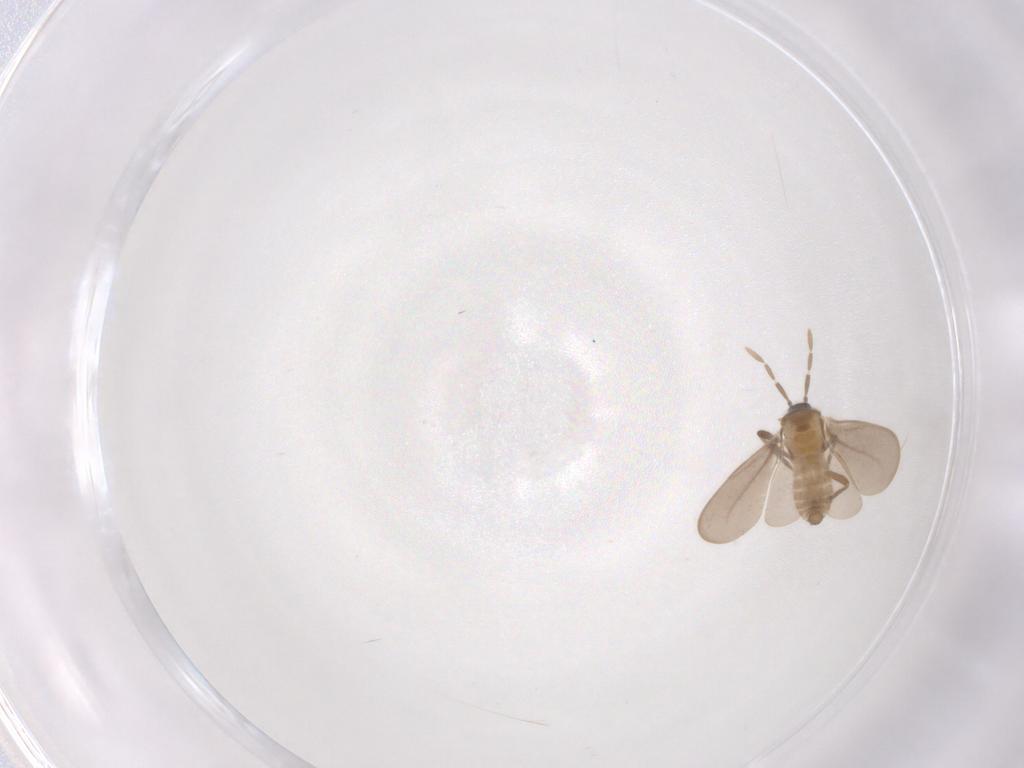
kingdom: Animalia
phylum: Arthropoda
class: Insecta
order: Hemiptera
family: Enicocephalidae
